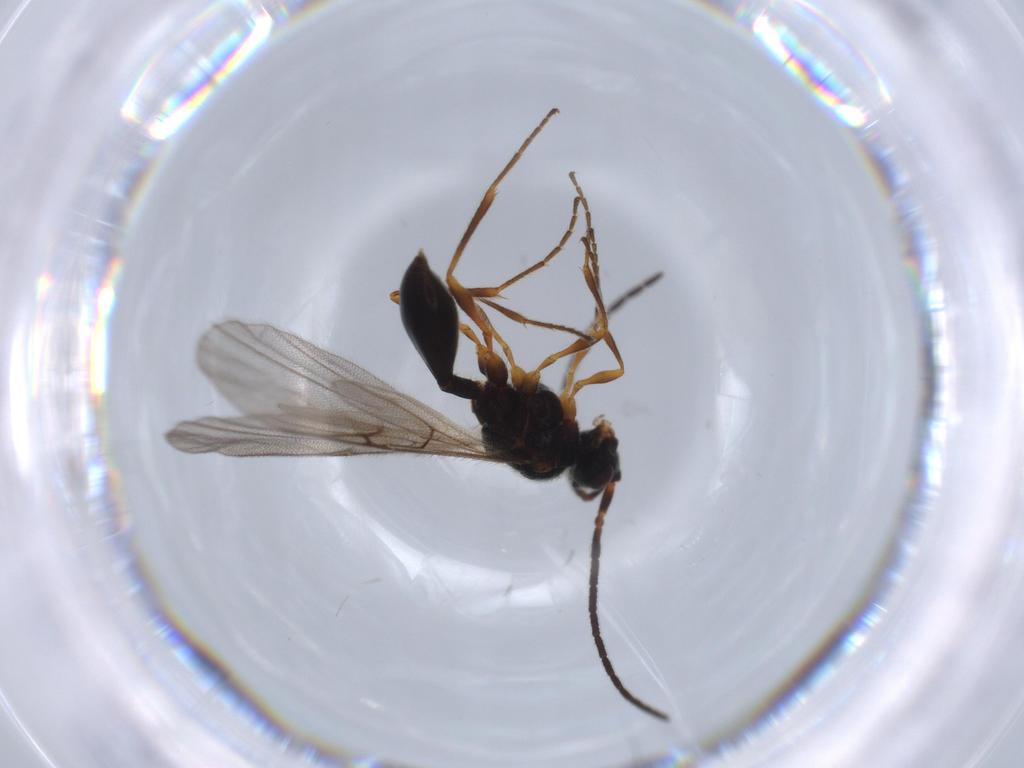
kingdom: Animalia
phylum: Arthropoda
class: Insecta
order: Hymenoptera
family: Diapriidae
